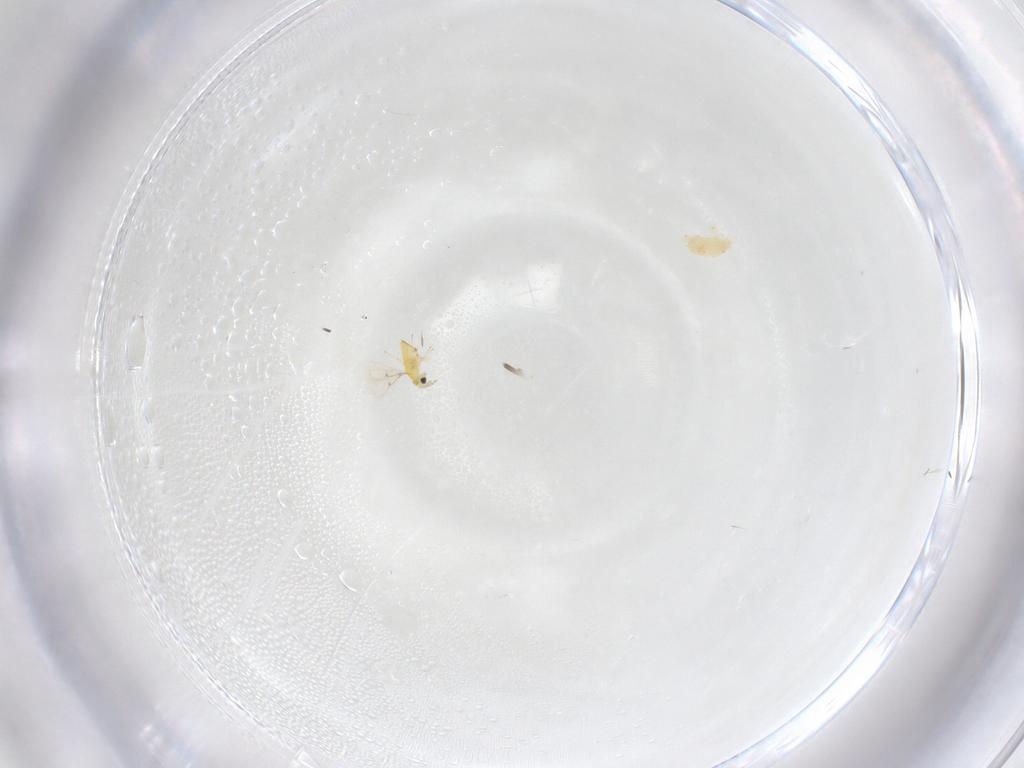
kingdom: Animalia
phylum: Arthropoda
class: Insecta
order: Hymenoptera
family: Trichogrammatidae
